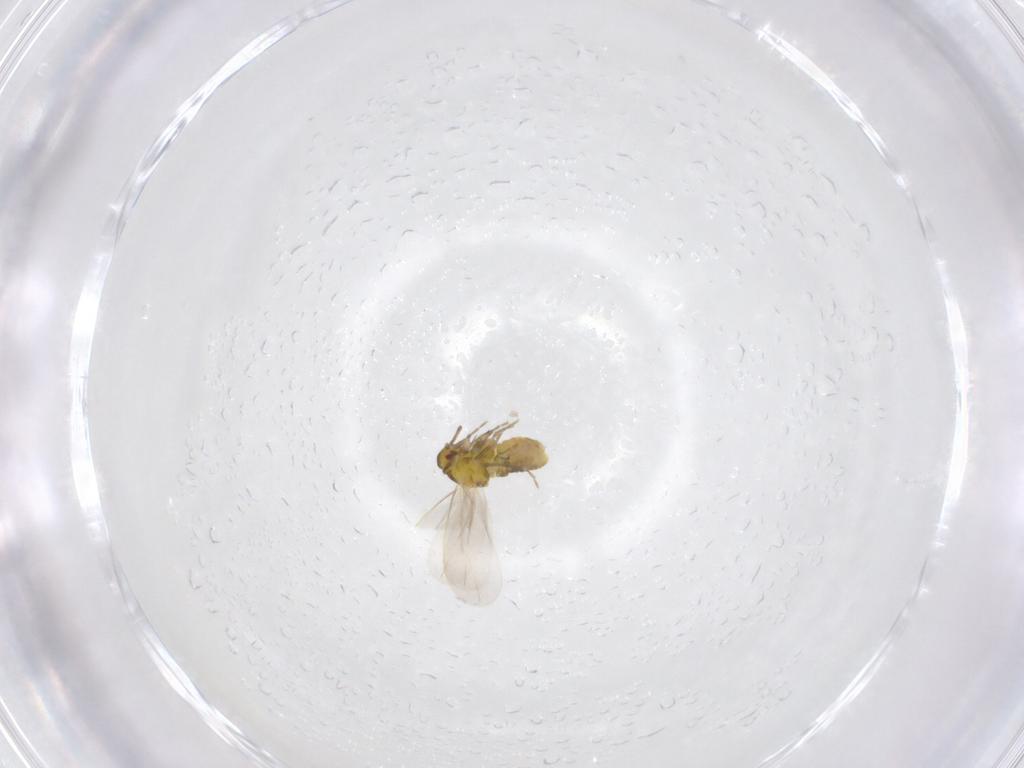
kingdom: Animalia
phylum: Arthropoda
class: Insecta
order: Hemiptera
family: Aleyrodidae
